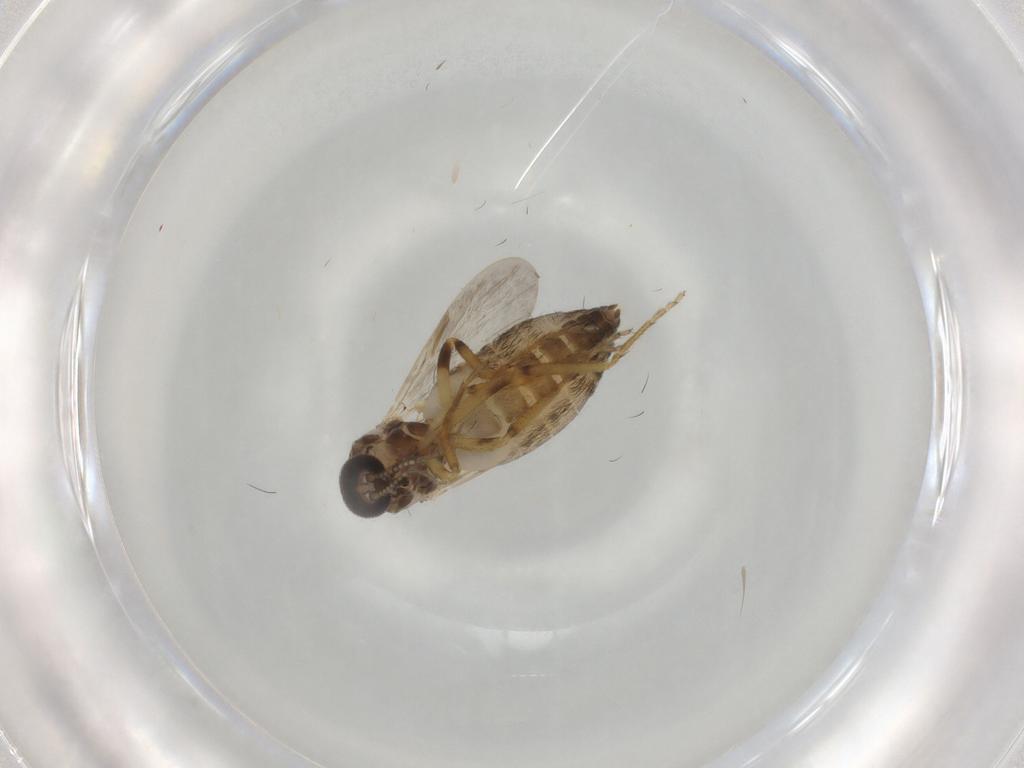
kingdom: Animalia
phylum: Arthropoda
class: Insecta
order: Diptera
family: Ceratopogonidae
